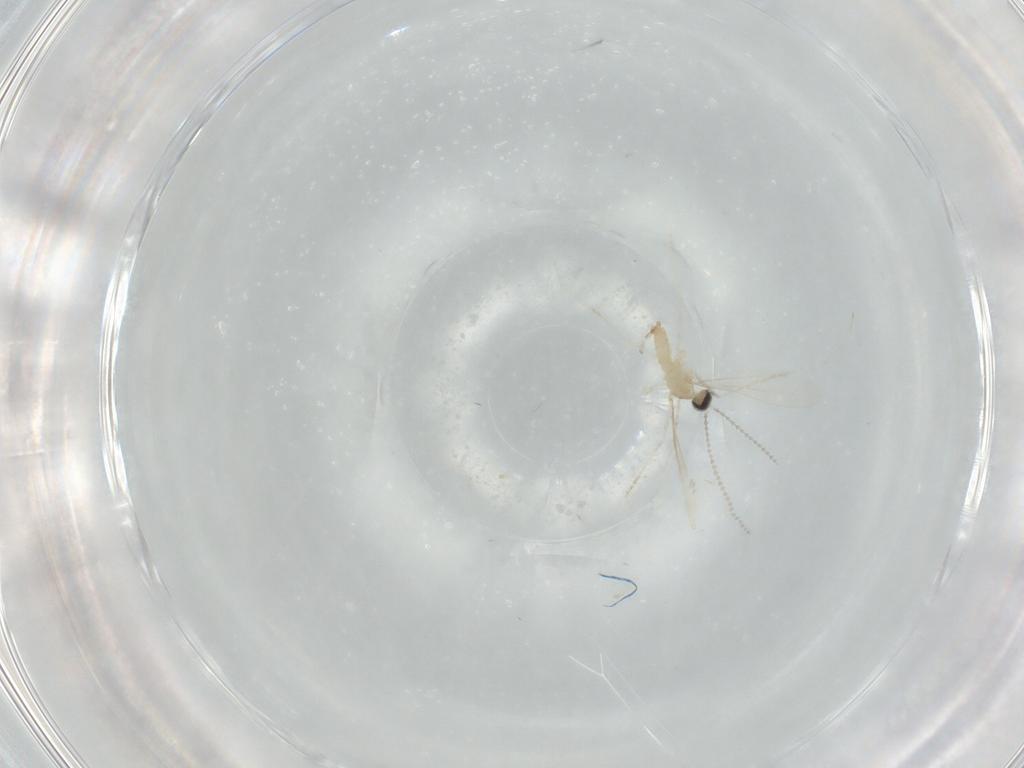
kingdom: Animalia
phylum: Arthropoda
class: Insecta
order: Diptera
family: Cecidomyiidae
